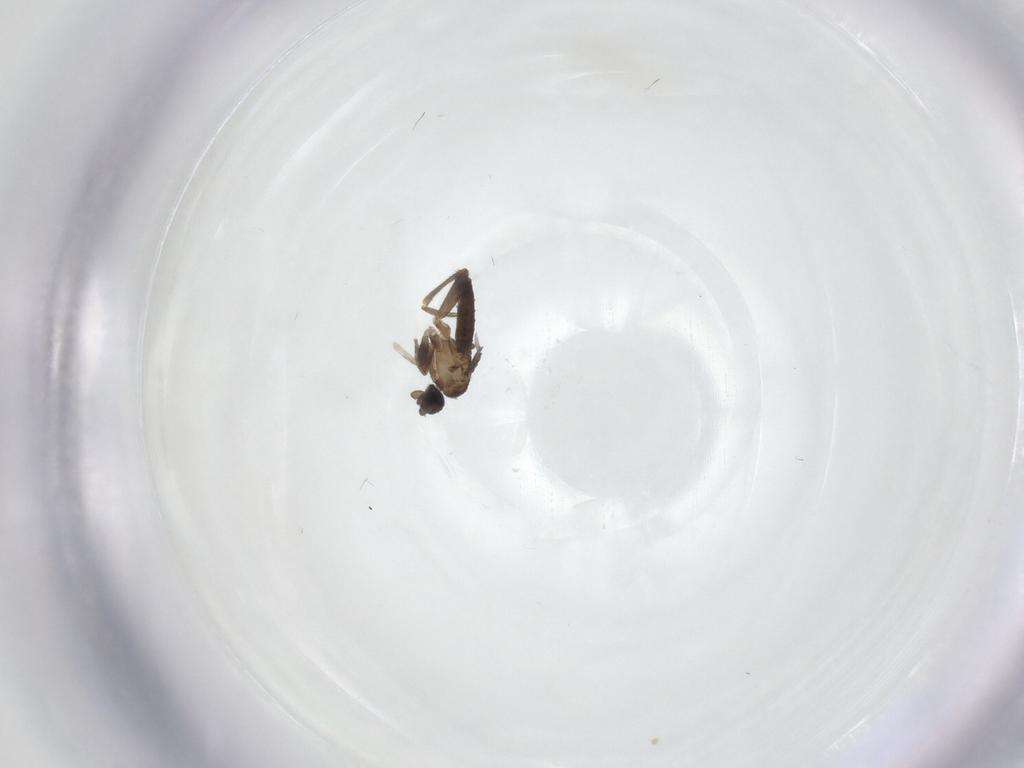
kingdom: Animalia
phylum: Arthropoda
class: Insecta
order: Diptera
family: Phoridae
